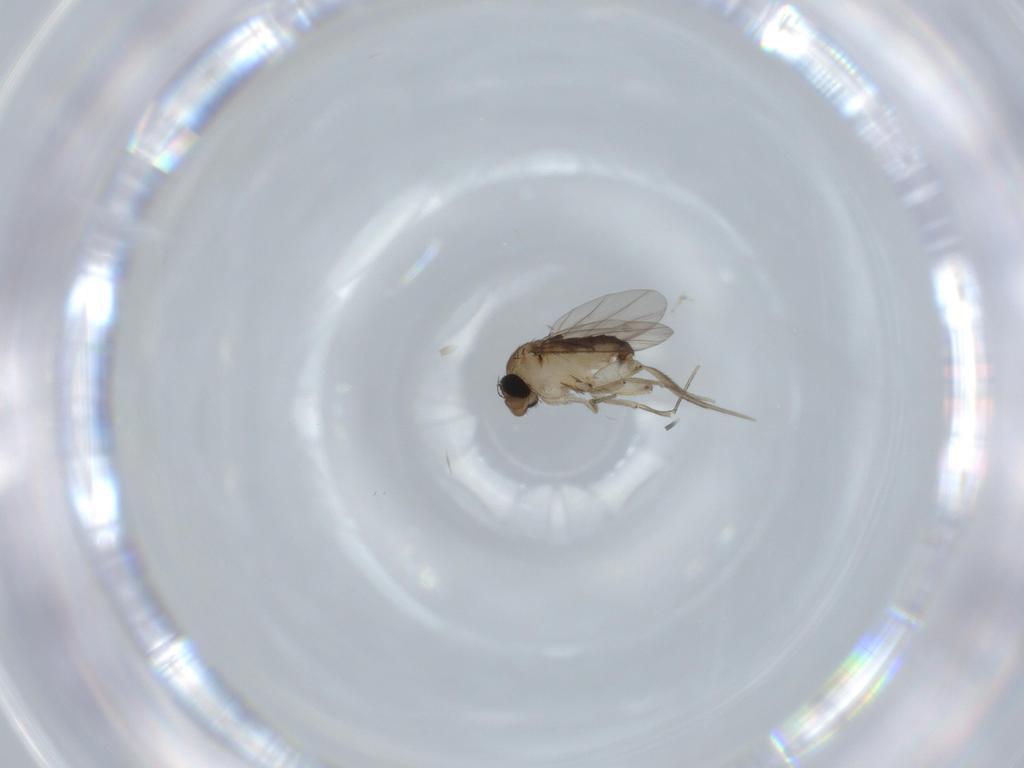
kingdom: Animalia
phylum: Arthropoda
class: Insecta
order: Diptera
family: Phoridae
